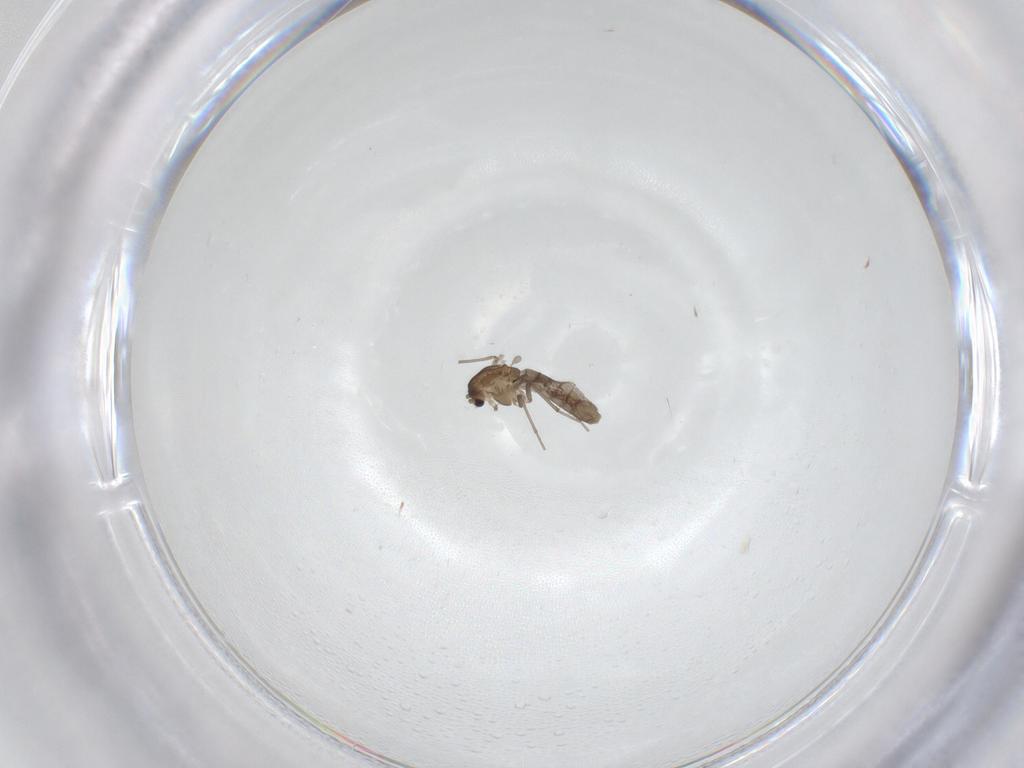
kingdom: Animalia
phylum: Arthropoda
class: Insecta
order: Diptera
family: Chironomidae
